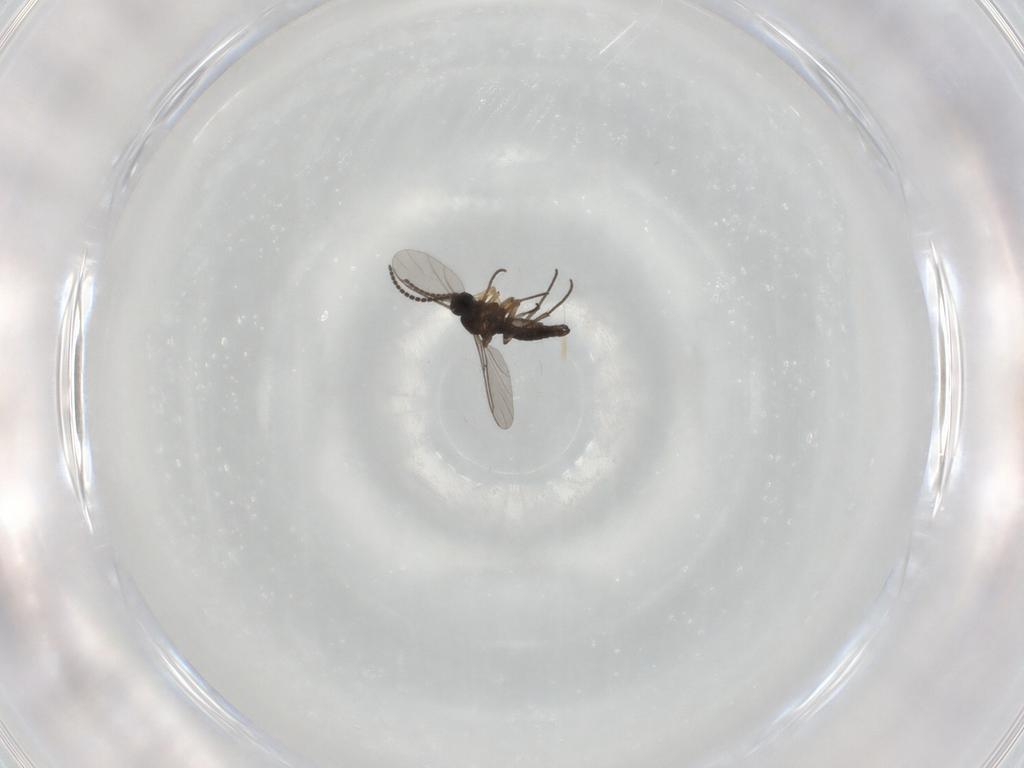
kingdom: Animalia
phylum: Arthropoda
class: Insecta
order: Diptera
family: Sciaridae
